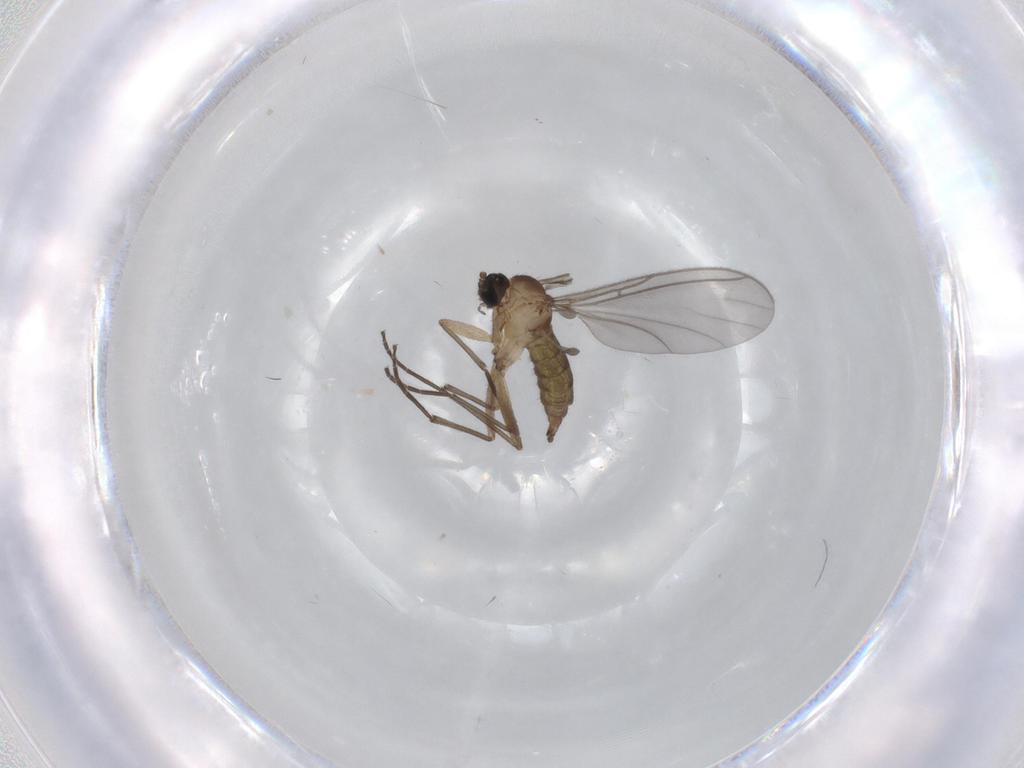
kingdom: Animalia
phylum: Arthropoda
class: Insecta
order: Diptera
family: Sciaridae
